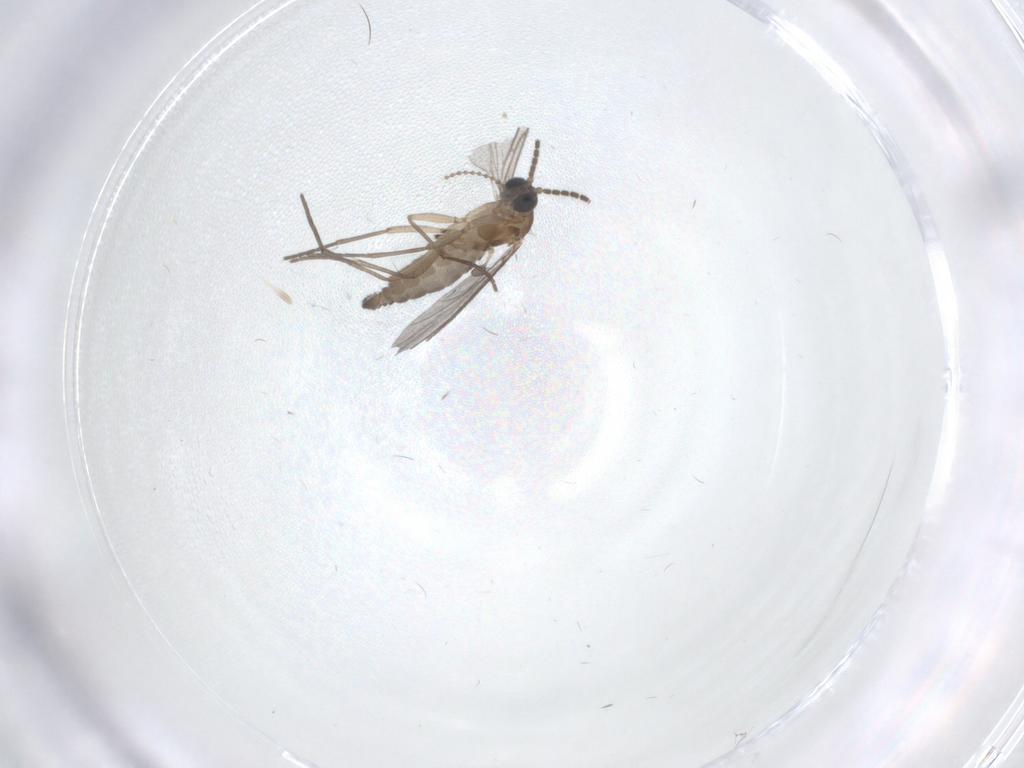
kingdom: Animalia
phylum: Arthropoda
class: Insecta
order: Diptera
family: Sciaridae
